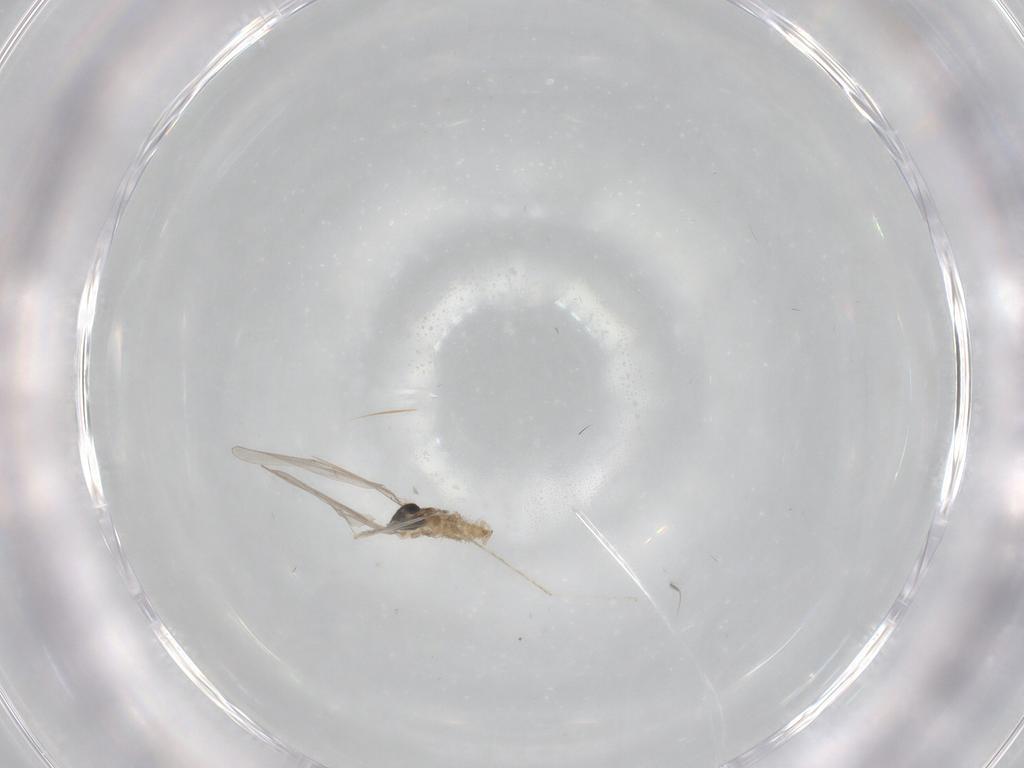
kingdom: Animalia
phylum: Arthropoda
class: Insecta
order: Diptera
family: Cecidomyiidae
